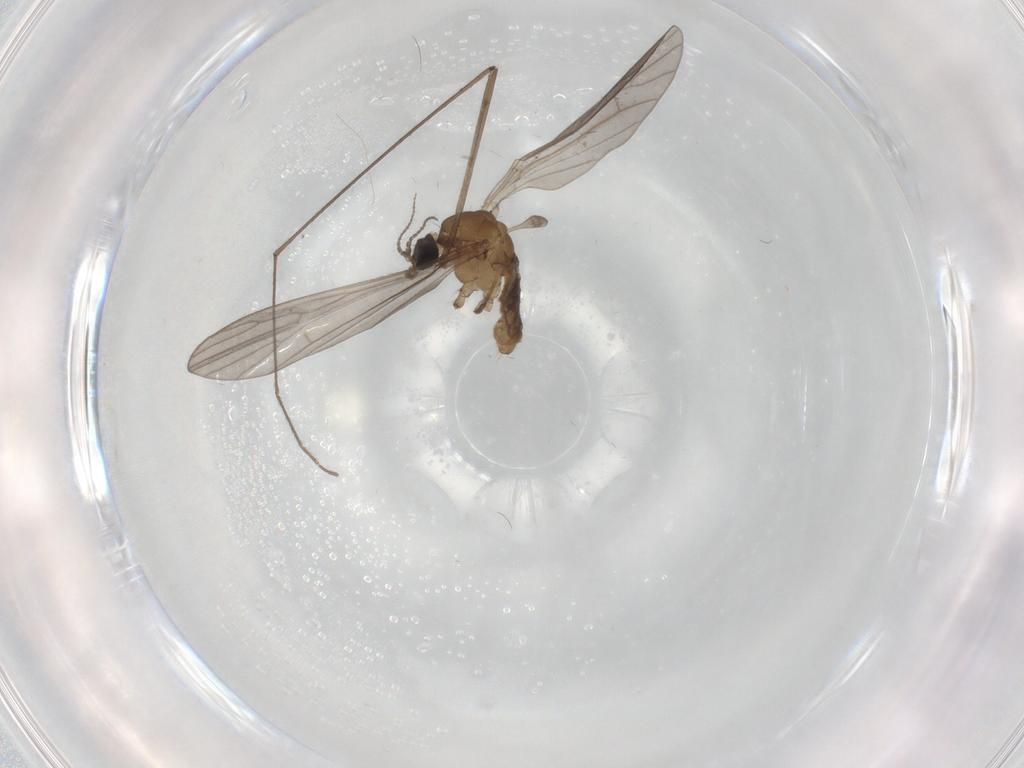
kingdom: Animalia
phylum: Arthropoda
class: Insecta
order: Diptera
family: Limoniidae
